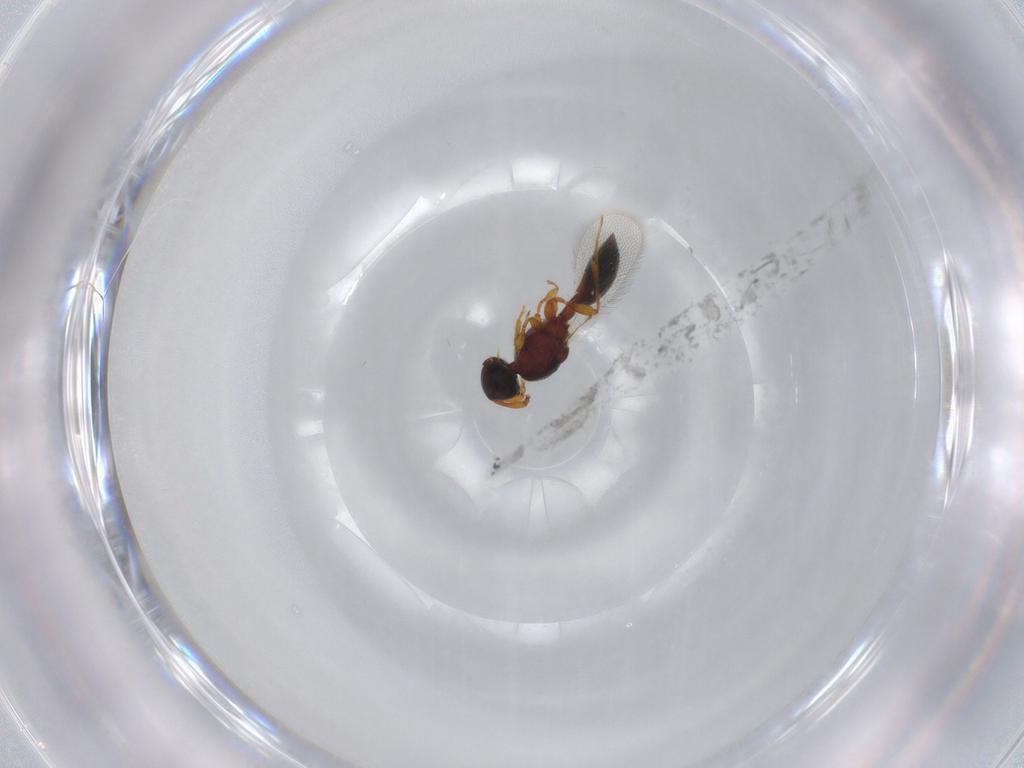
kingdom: Animalia
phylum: Arthropoda
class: Insecta
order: Hymenoptera
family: Diapriidae
